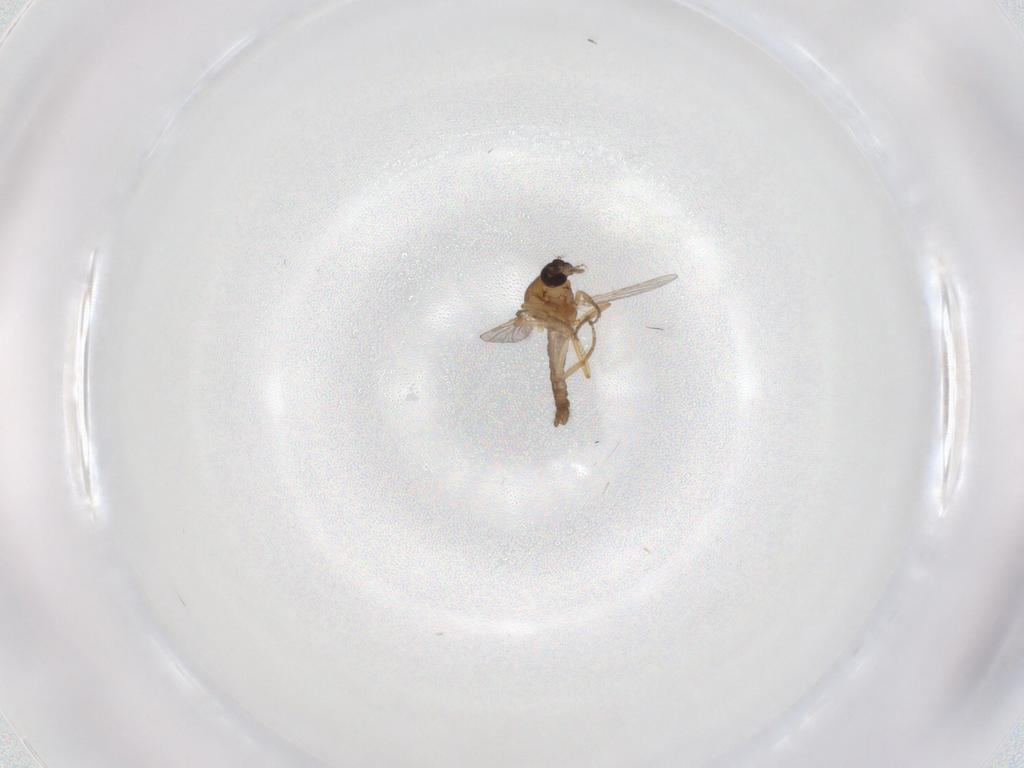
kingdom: Animalia
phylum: Arthropoda
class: Insecta
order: Diptera
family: Ceratopogonidae
